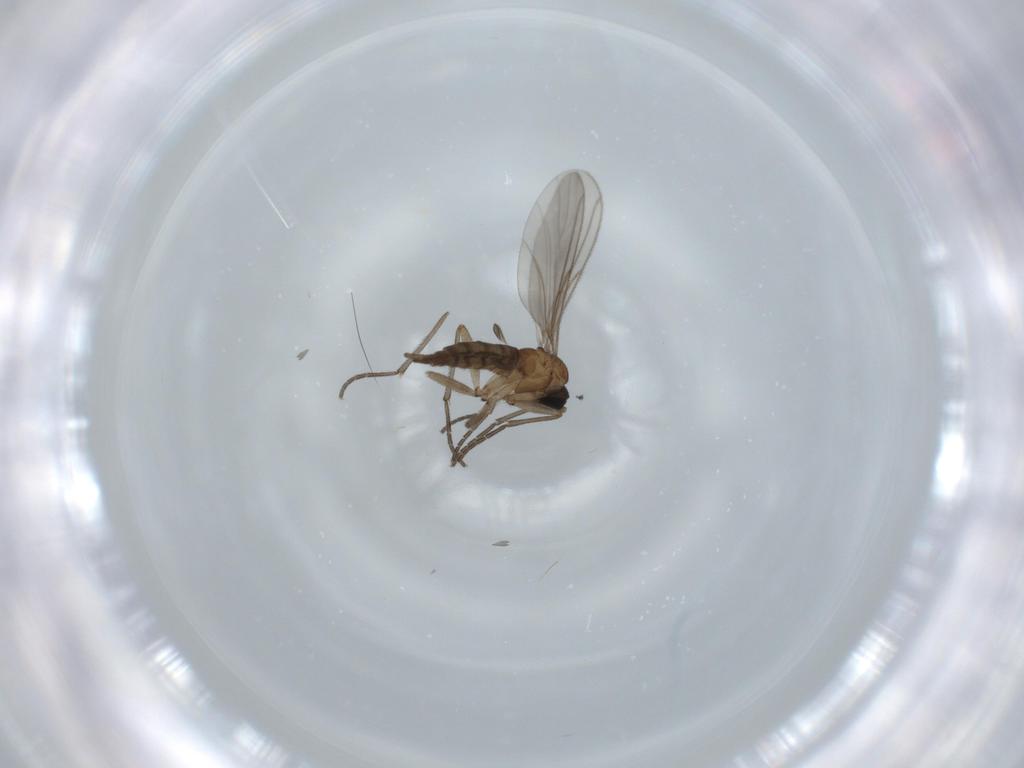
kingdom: Animalia
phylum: Arthropoda
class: Insecta
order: Diptera
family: Sciaridae
